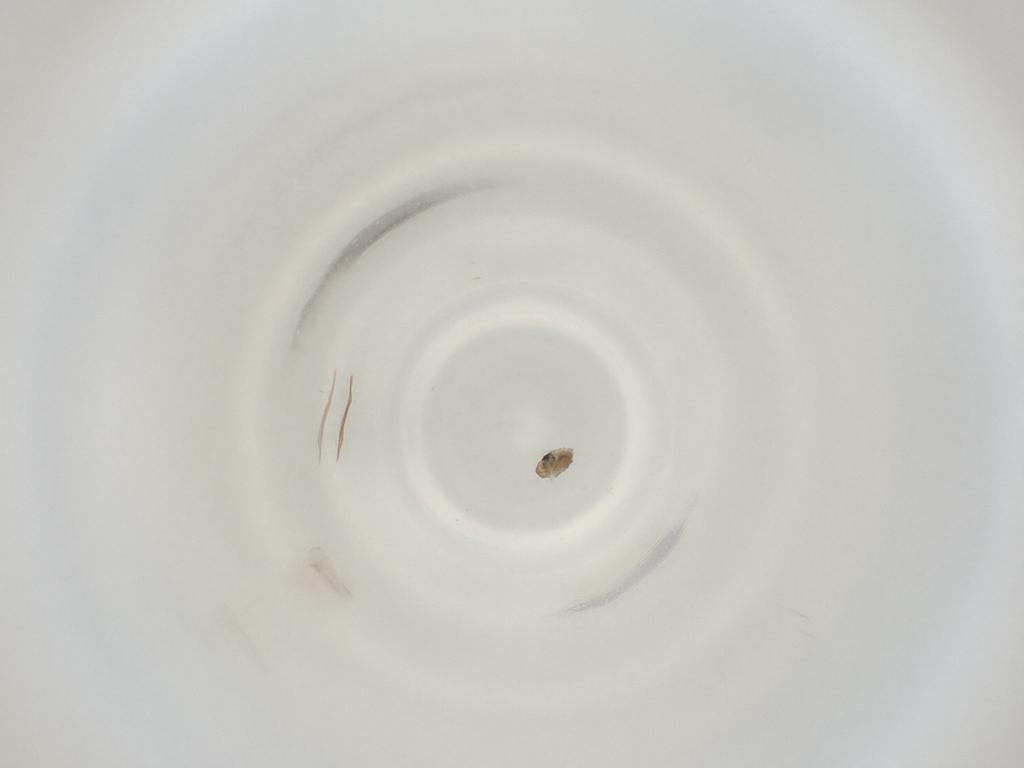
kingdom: Animalia
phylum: Arthropoda
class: Insecta
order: Diptera
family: Cecidomyiidae
